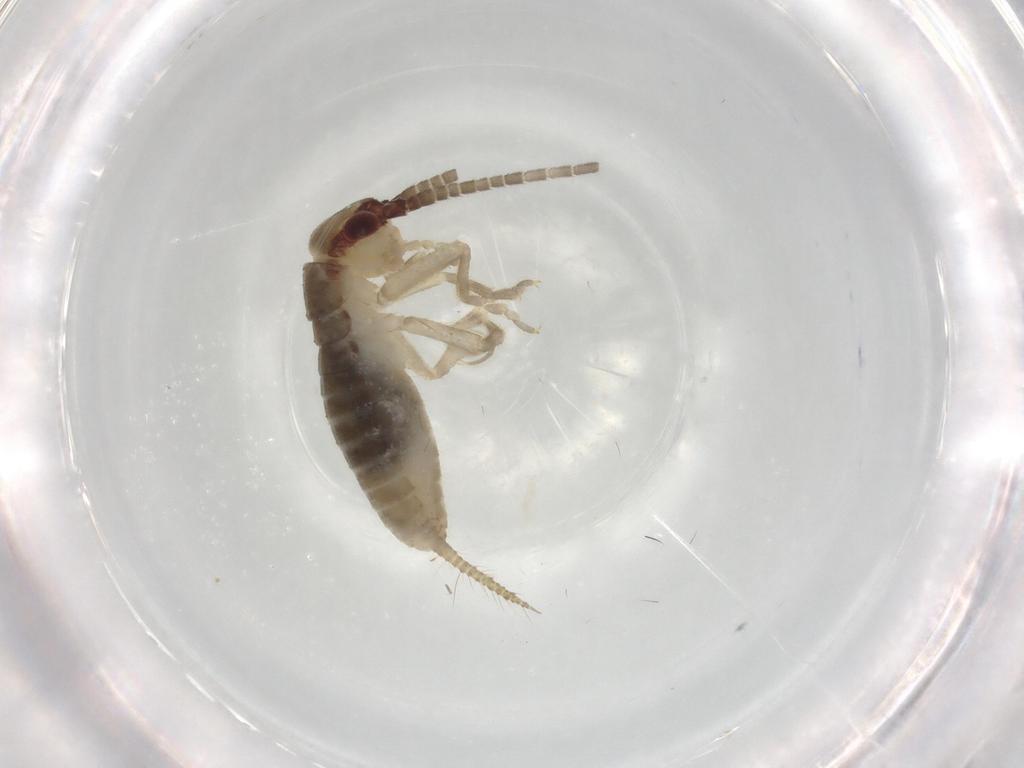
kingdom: Animalia
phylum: Arthropoda
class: Insecta
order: Orthoptera
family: Gryllidae
